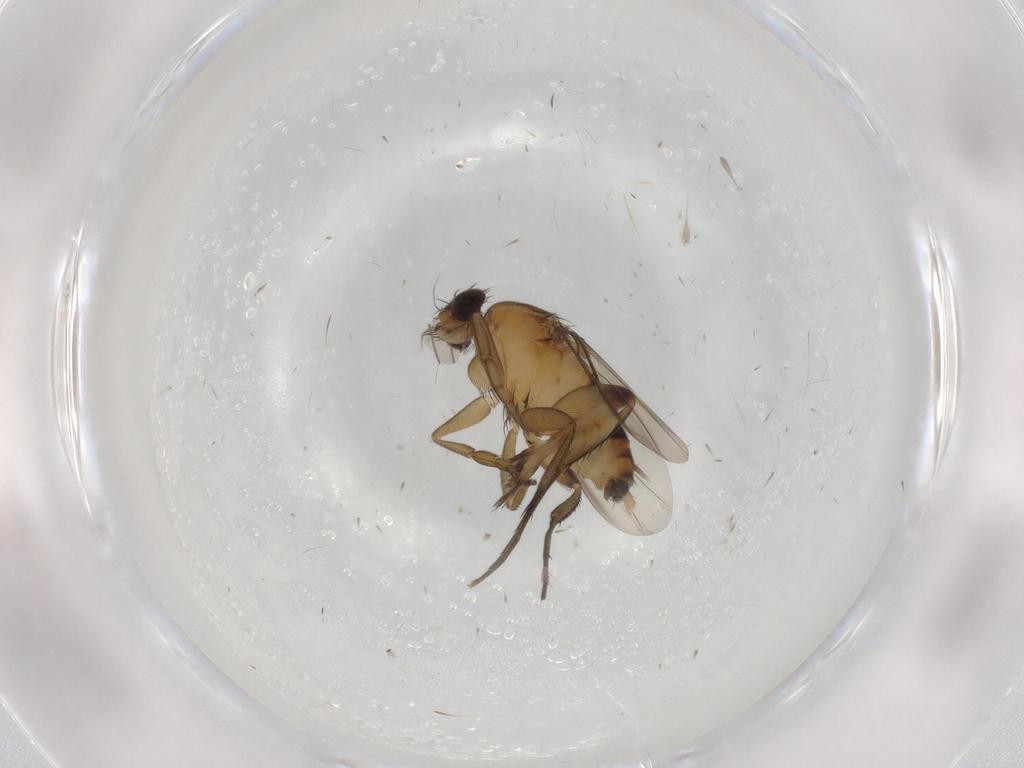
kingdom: Animalia
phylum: Arthropoda
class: Insecta
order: Diptera
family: Phoridae
